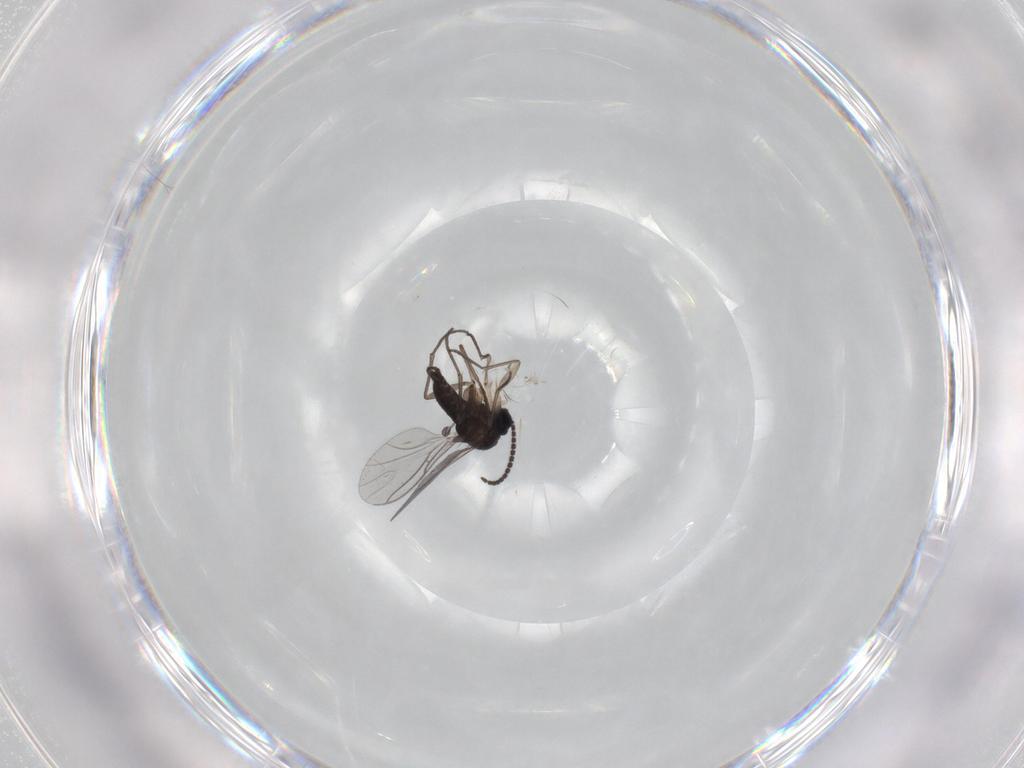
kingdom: Animalia
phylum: Arthropoda
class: Insecta
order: Diptera
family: Sciaridae
